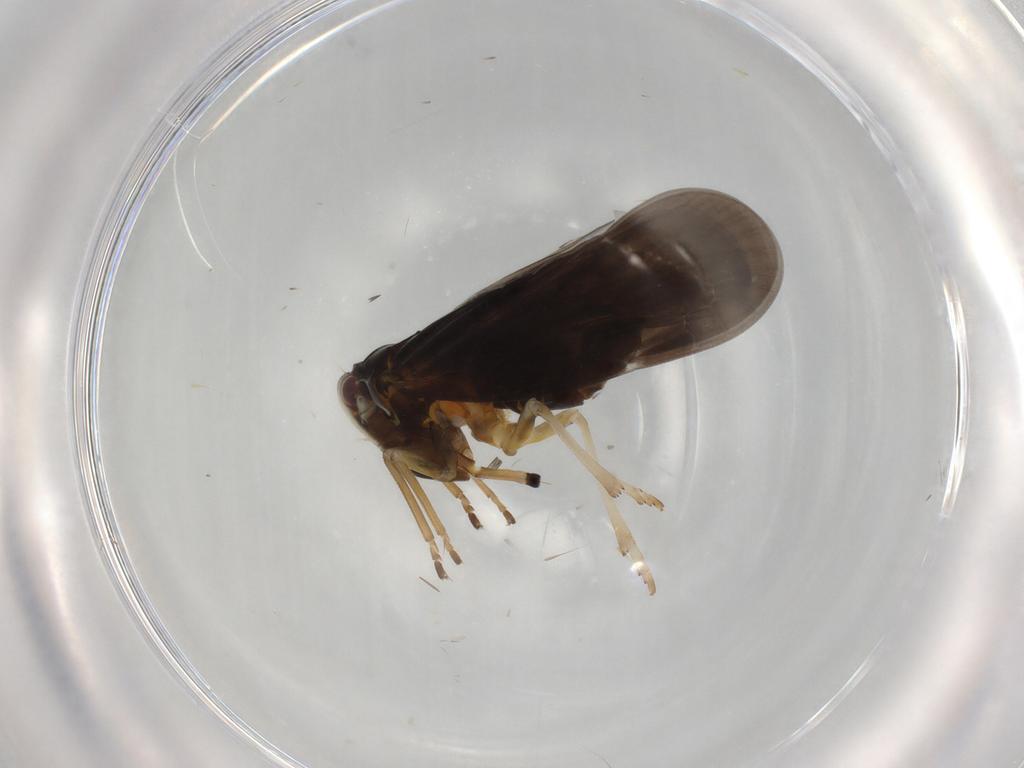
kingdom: Animalia
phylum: Arthropoda
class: Insecta
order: Hemiptera
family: Derbidae
